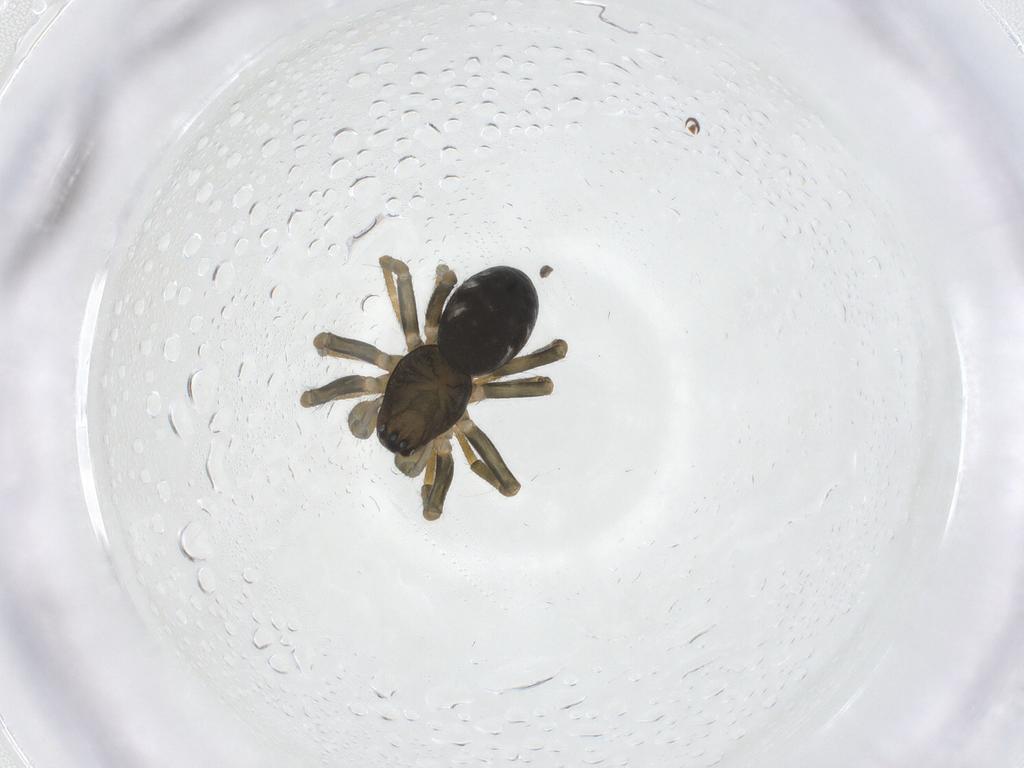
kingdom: Animalia
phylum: Arthropoda
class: Arachnida
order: Araneae
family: Theridiidae
